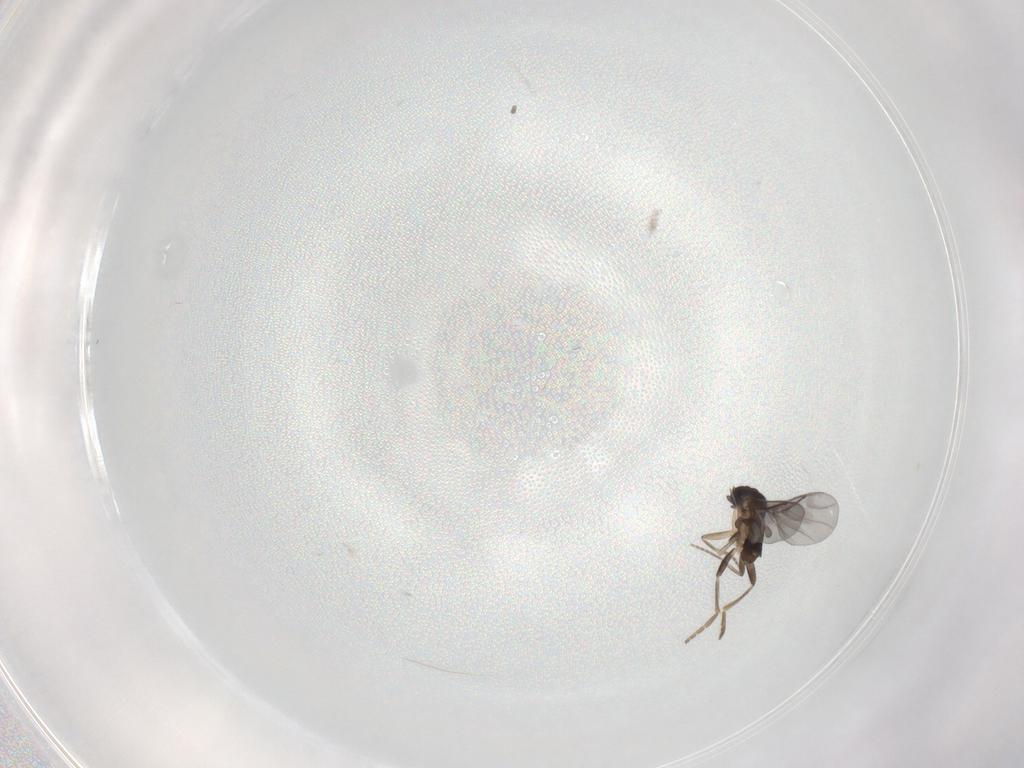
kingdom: Animalia
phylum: Arthropoda
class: Insecta
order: Diptera
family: Phoridae
